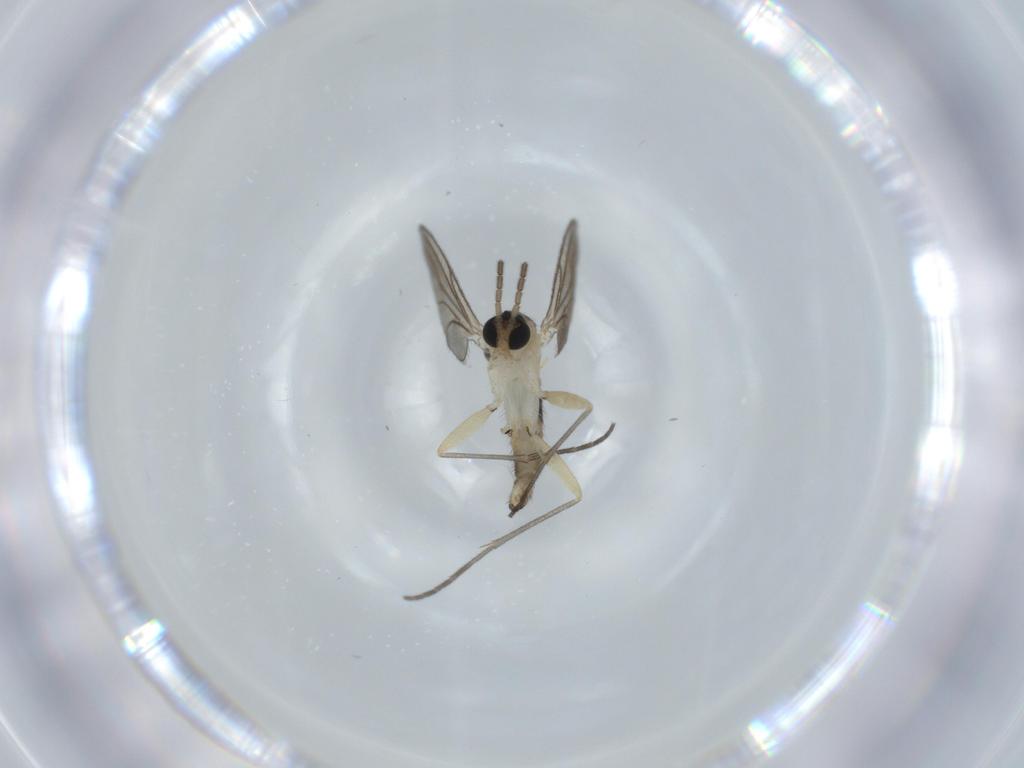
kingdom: Animalia
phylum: Arthropoda
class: Insecta
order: Diptera
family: Sciaridae
